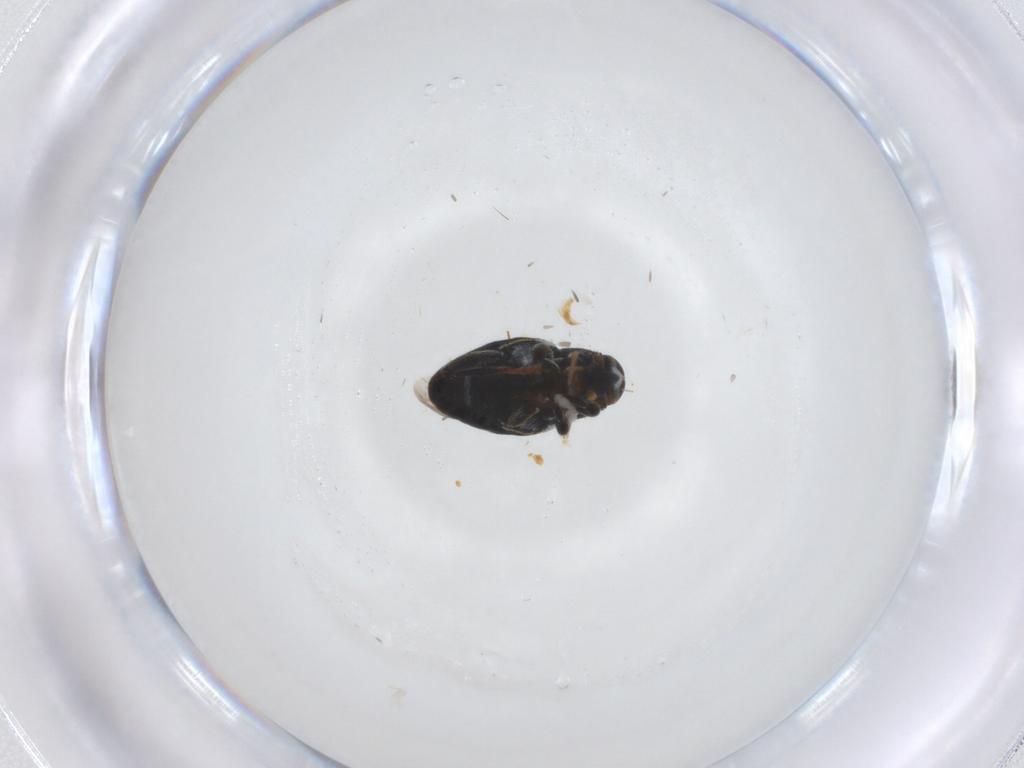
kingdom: Animalia
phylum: Arthropoda
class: Insecta
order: Coleoptera
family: Curculionidae
